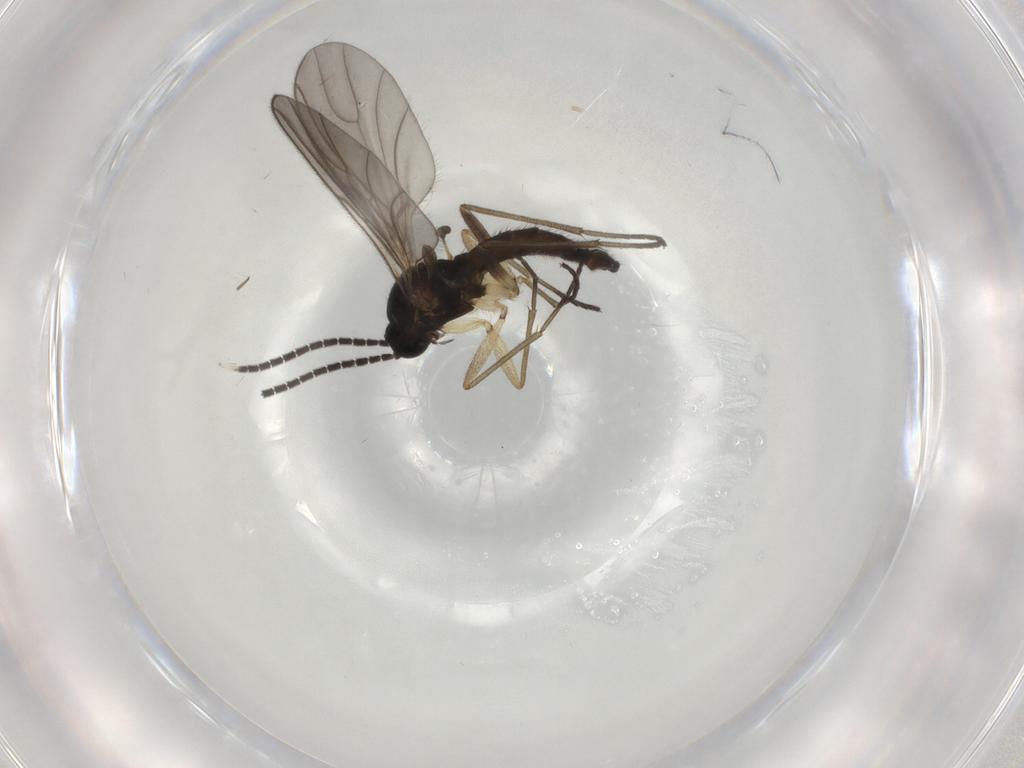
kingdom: Animalia
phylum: Arthropoda
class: Insecta
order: Diptera
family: Sciaridae
